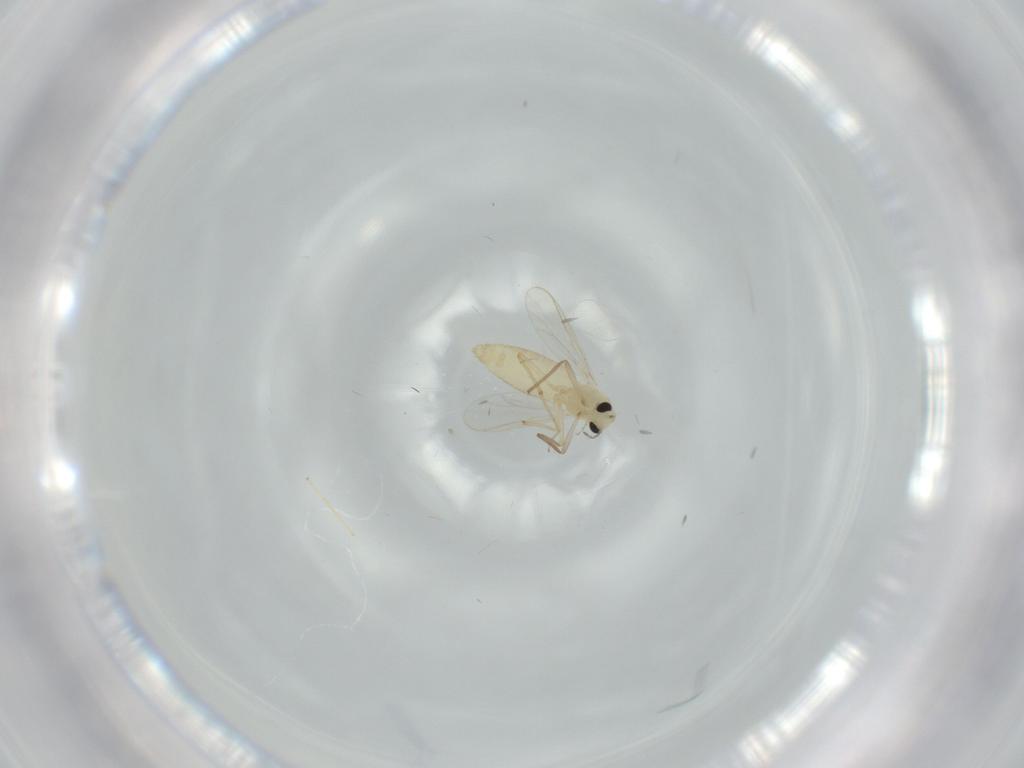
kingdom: Animalia
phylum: Arthropoda
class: Insecta
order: Diptera
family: Chironomidae
